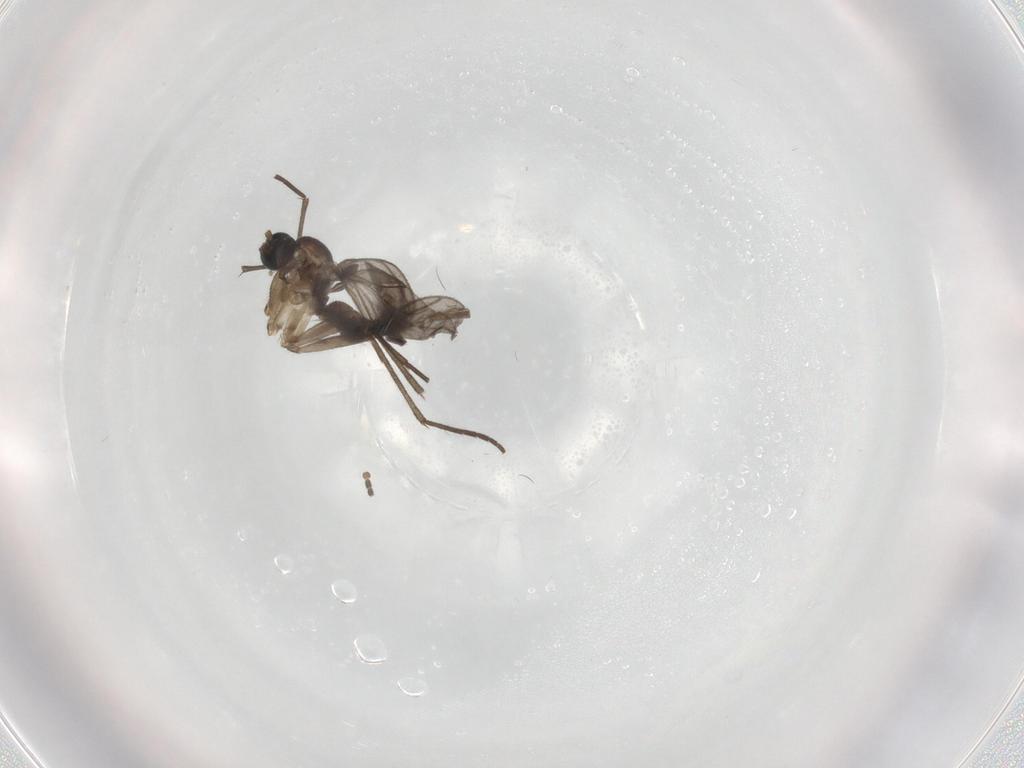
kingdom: Animalia
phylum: Arthropoda
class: Insecta
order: Diptera
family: Sciaridae
